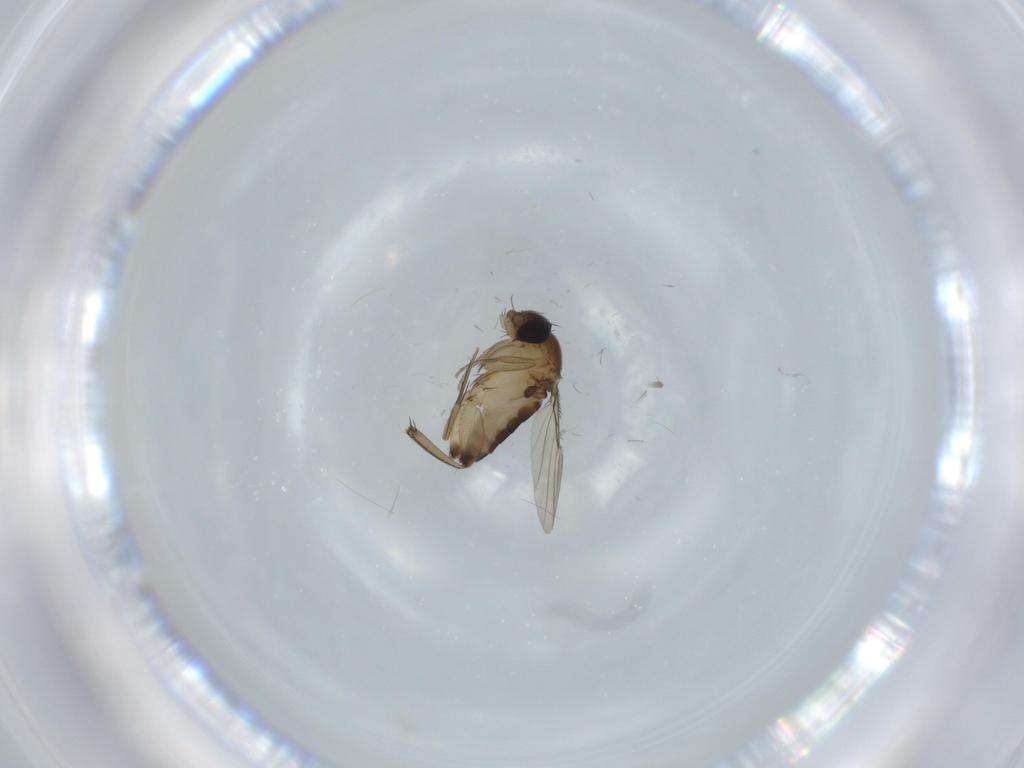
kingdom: Animalia
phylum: Arthropoda
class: Insecta
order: Diptera
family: Phoridae
